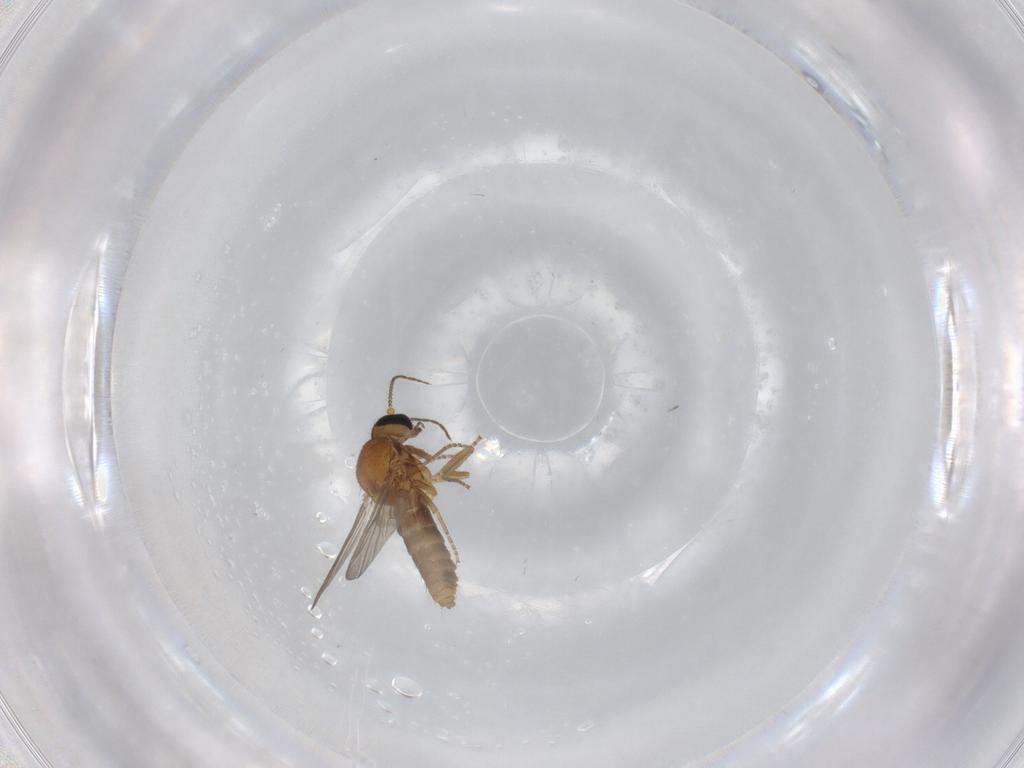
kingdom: Animalia
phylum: Arthropoda
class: Insecta
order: Diptera
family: Ceratopogonidae
